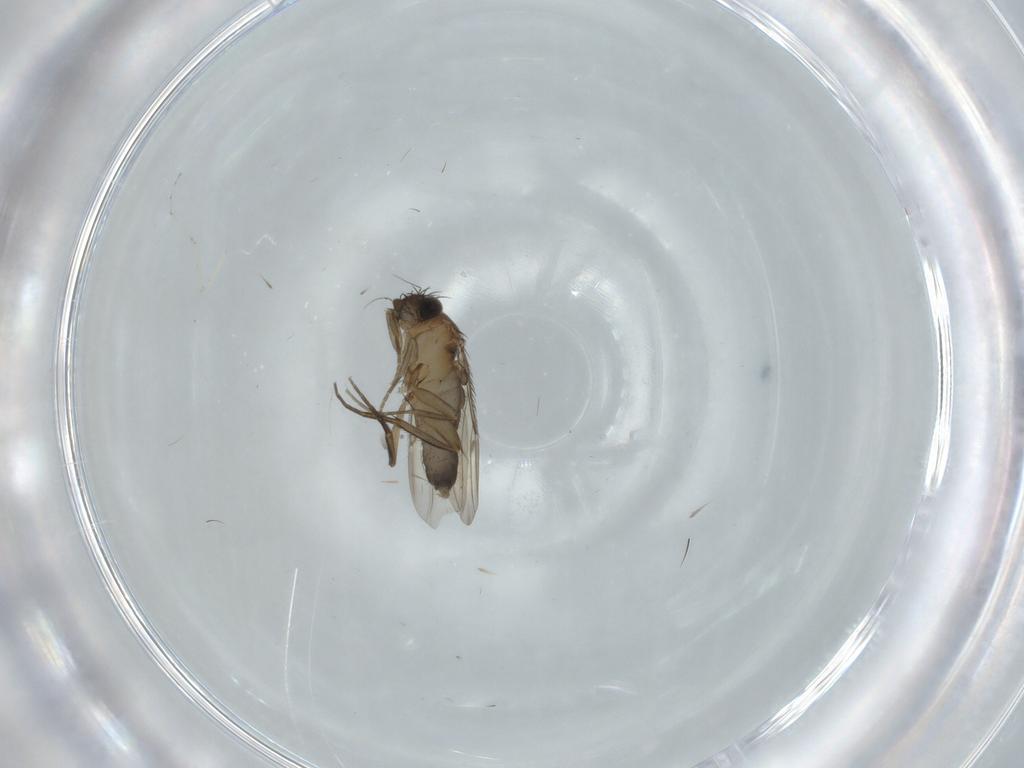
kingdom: Animalia
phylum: Arthropoda
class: Insecta
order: Diptera
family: Phoridae
